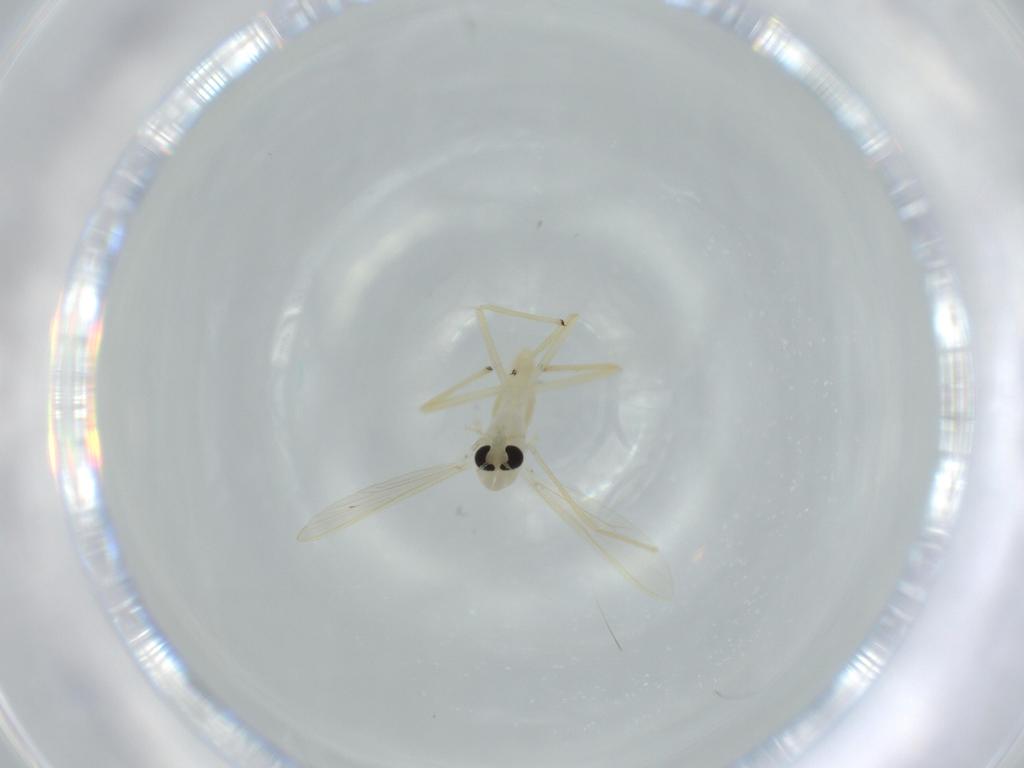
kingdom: Animalia
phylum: Arthropoda
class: Insecta
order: Diptera
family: Chironomidae
